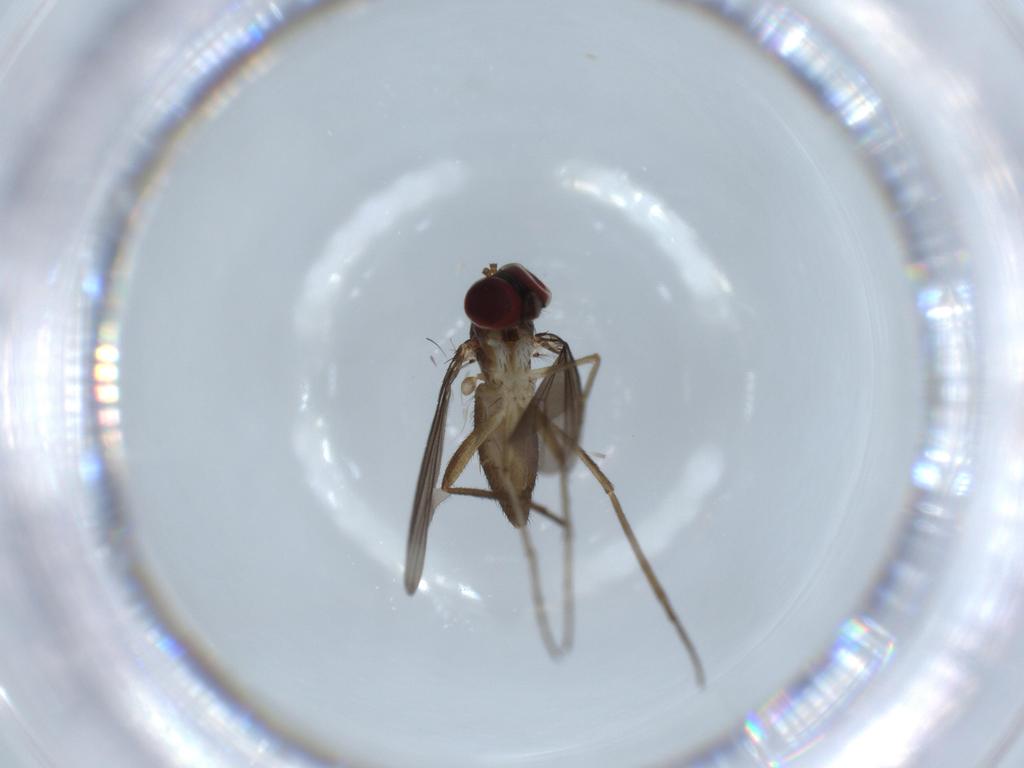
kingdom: Animalia
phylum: Arthropoda
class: Insecta
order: Diptera
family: Dolichopodidae
